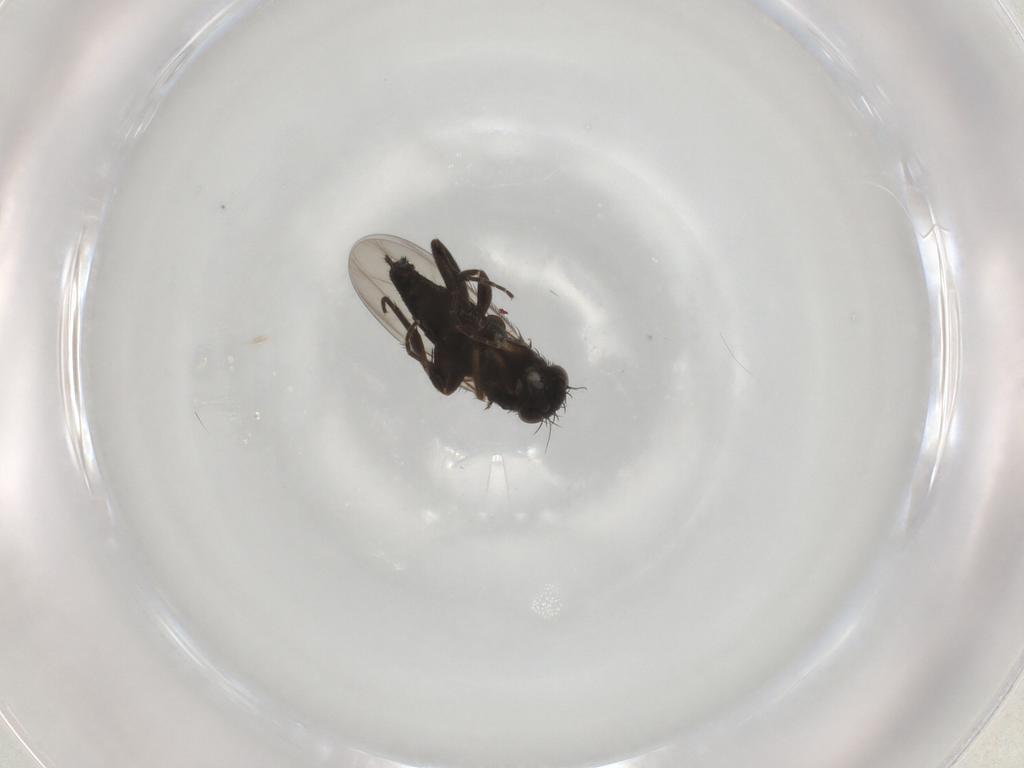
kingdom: Animalia
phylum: Arthropoda
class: Insecta
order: Diptera
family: Phoridae
